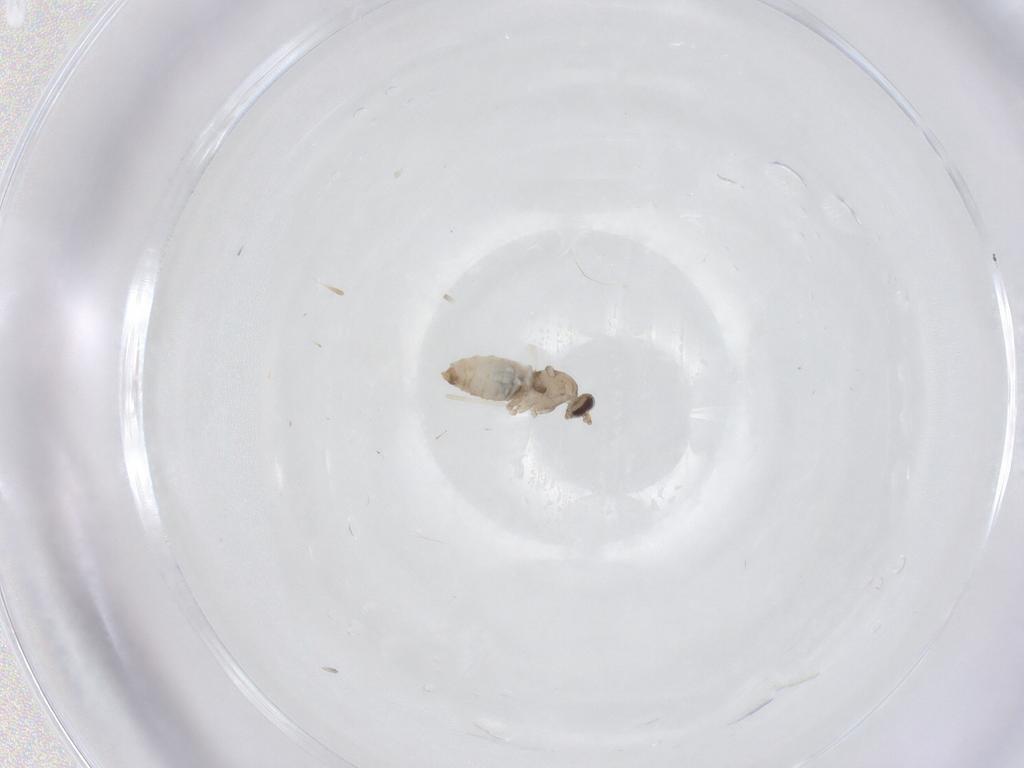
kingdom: Animalia
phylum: Arthropoda
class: Insecta
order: Diptera
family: Cecidomyiidae
